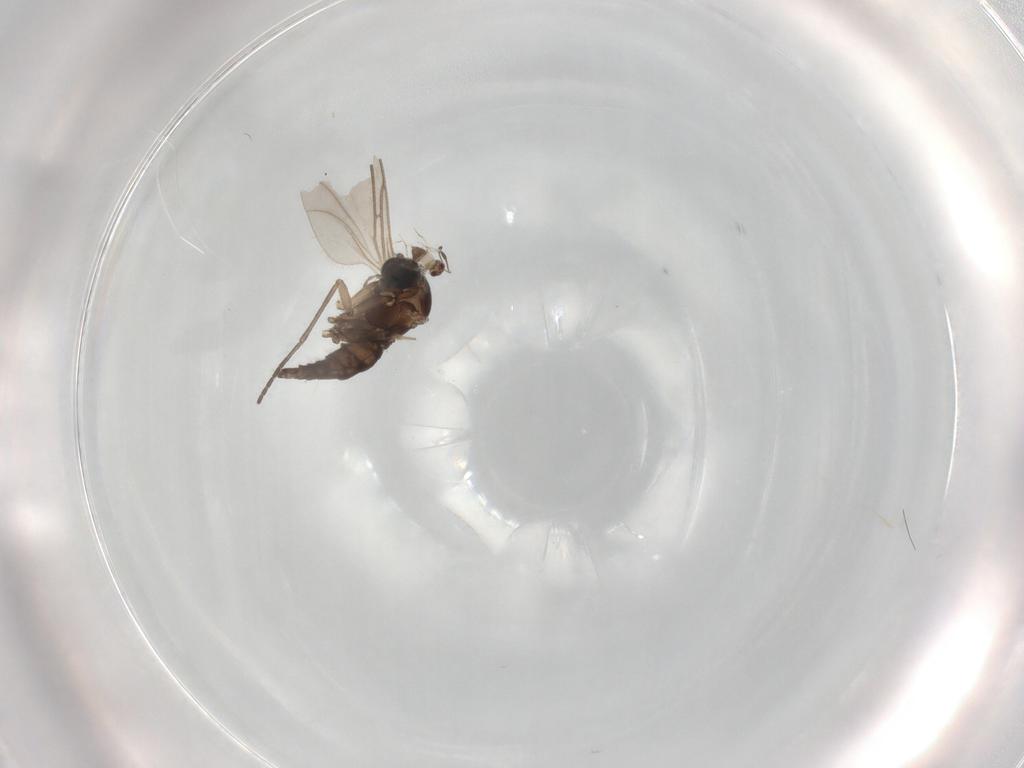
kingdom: Animalia
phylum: Arthropoda
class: Insecta
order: Diptera
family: Sciaridae
